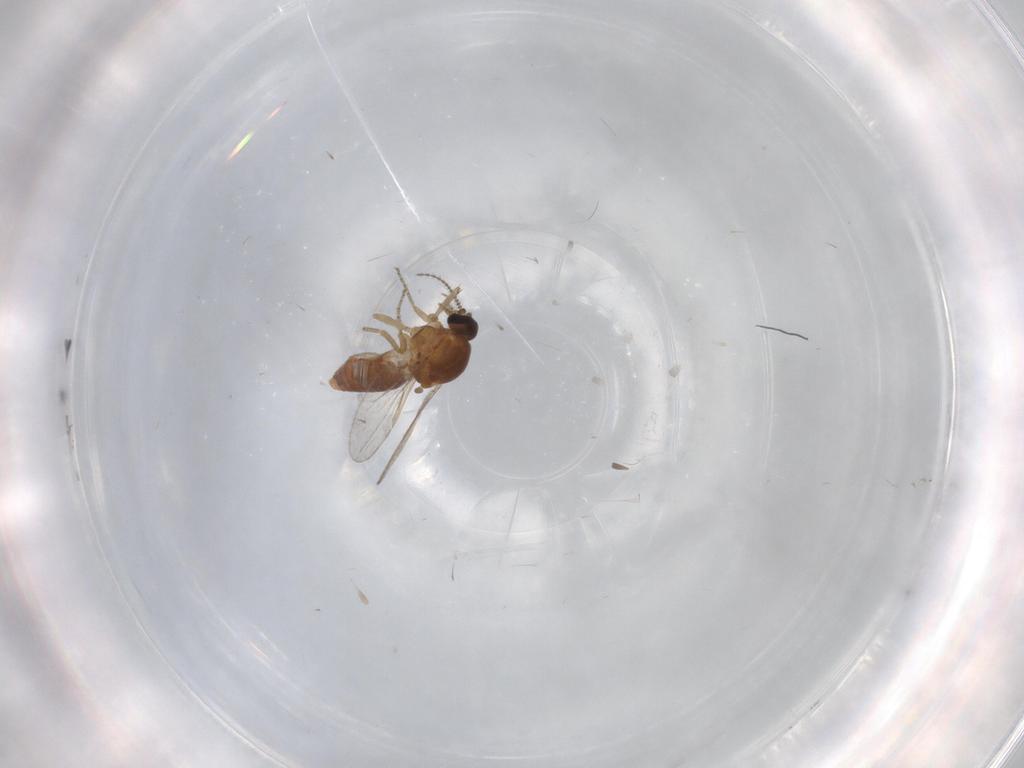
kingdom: Animalia
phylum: Arthropoda
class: Insecta
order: Diptera
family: Ceratopogonidae
